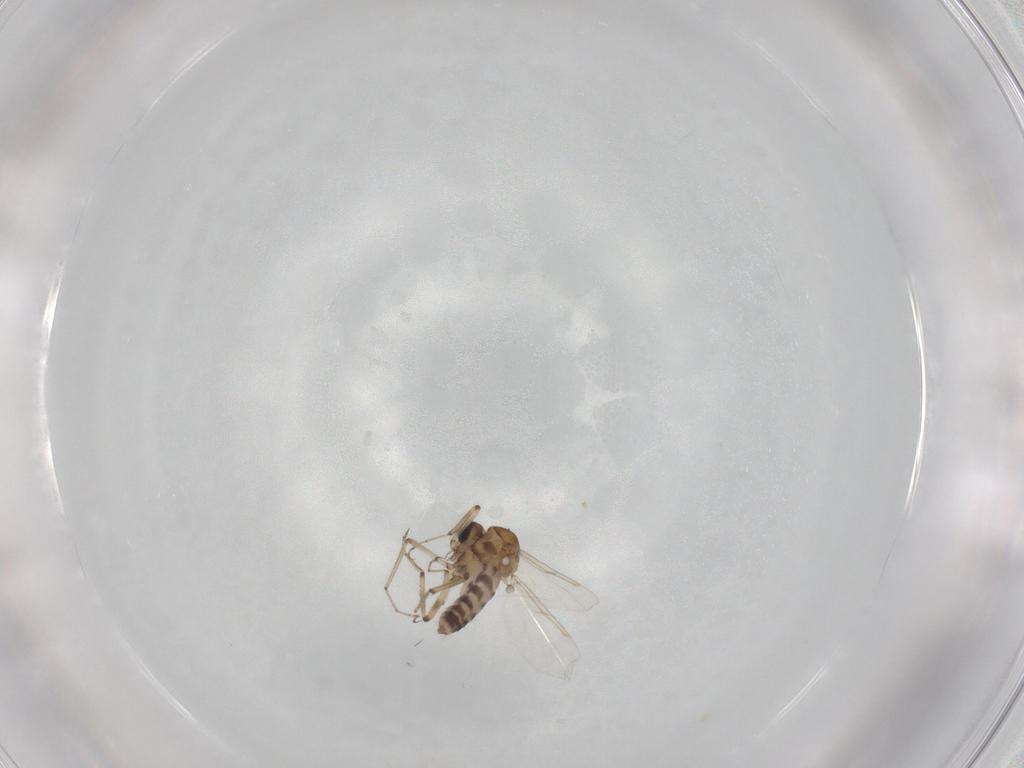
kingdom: Animalia
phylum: Arthropoda
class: Insecta
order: Diptera
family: Ceratopogonidae
